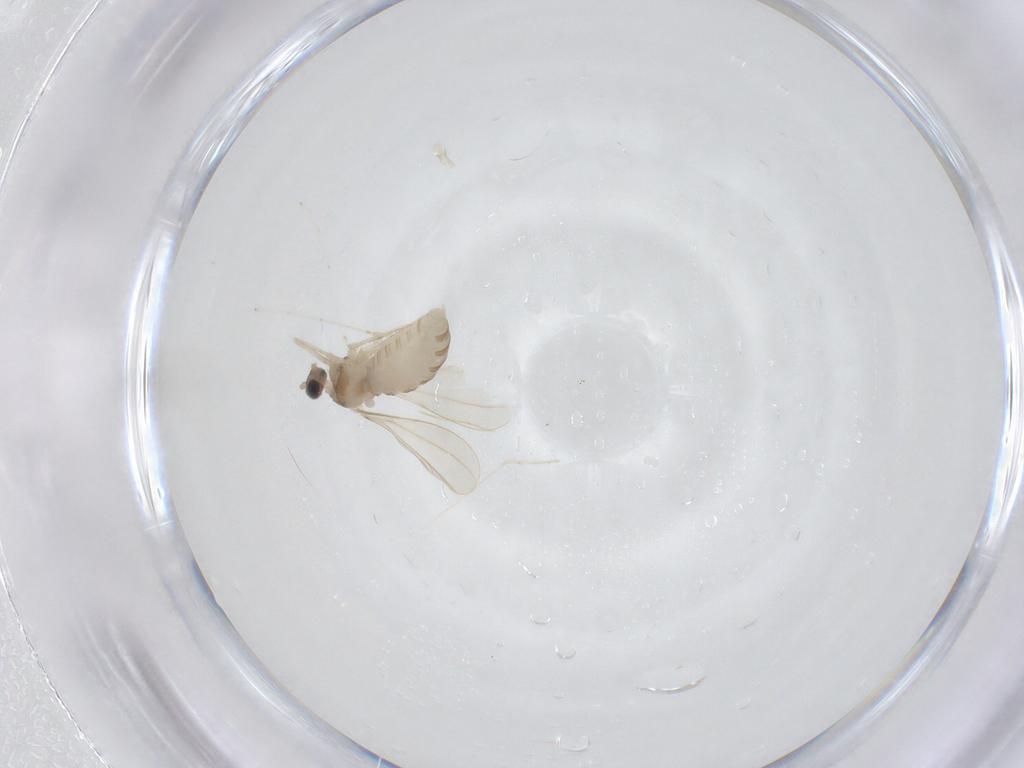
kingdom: Animalia
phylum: Arthropoda
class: Insecta
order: Diptera
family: Cecidomyiidae
